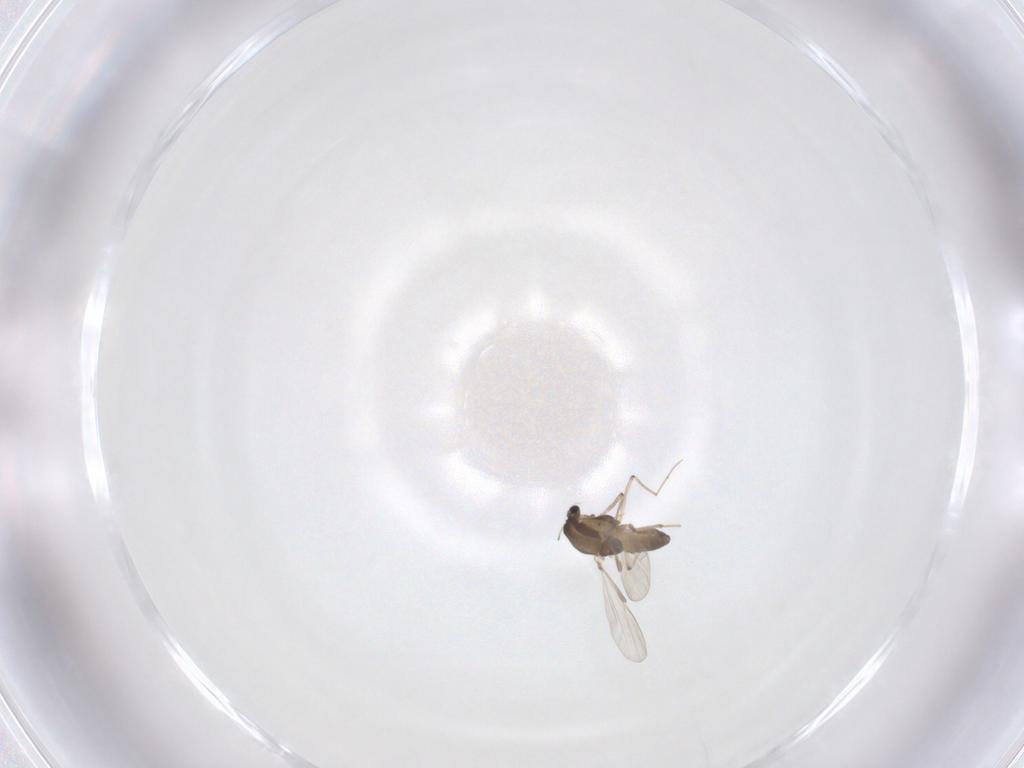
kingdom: Animalia
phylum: Arthropoda
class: Insecta
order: Diptera
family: Chironomidae
